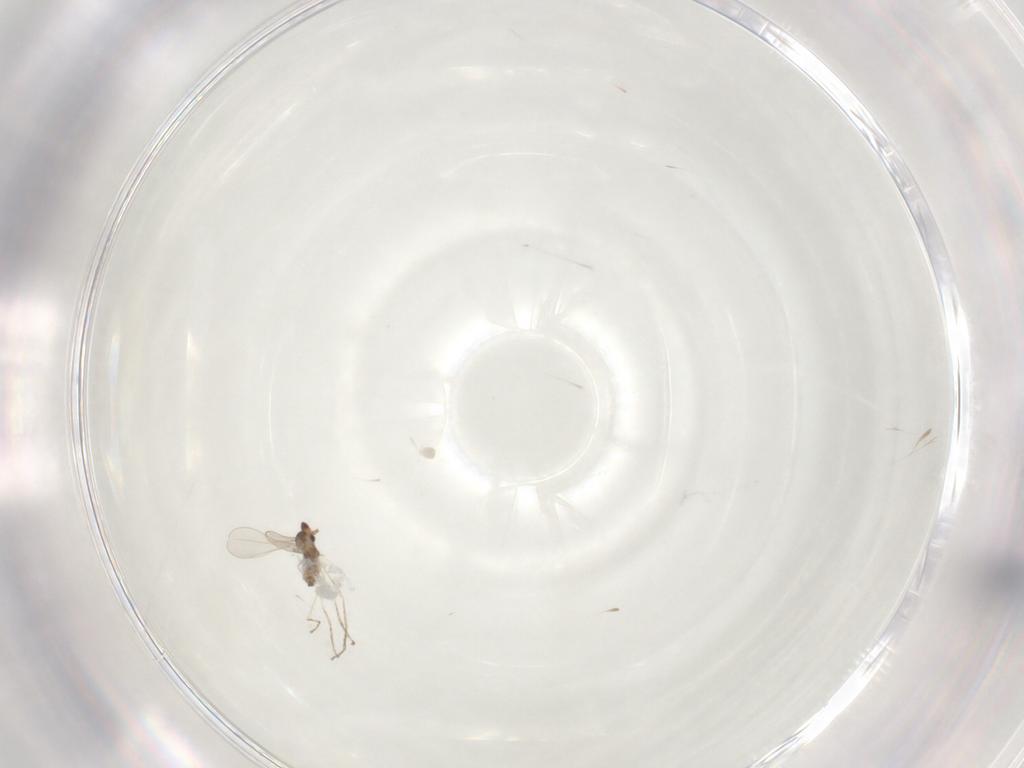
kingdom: Animalia
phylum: Arthropoda
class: Insecta
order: Diptera
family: Cecidomyiidae
